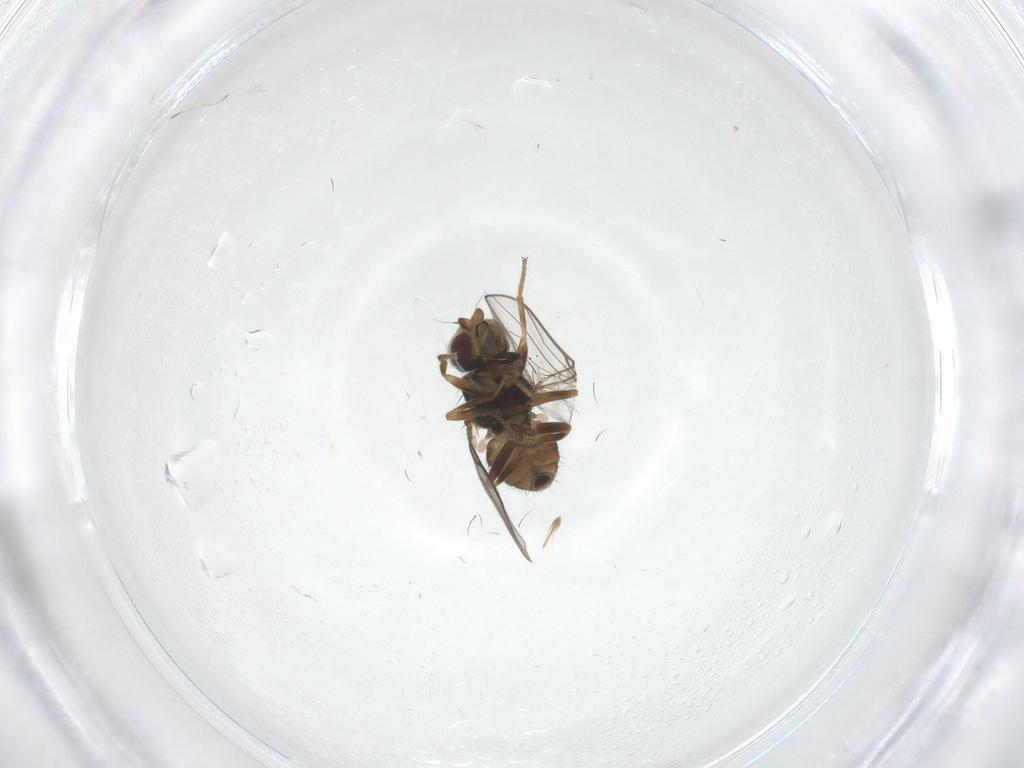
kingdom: Animalia
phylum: Arthropoda
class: Insecta
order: Diptera
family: Chloropidae
